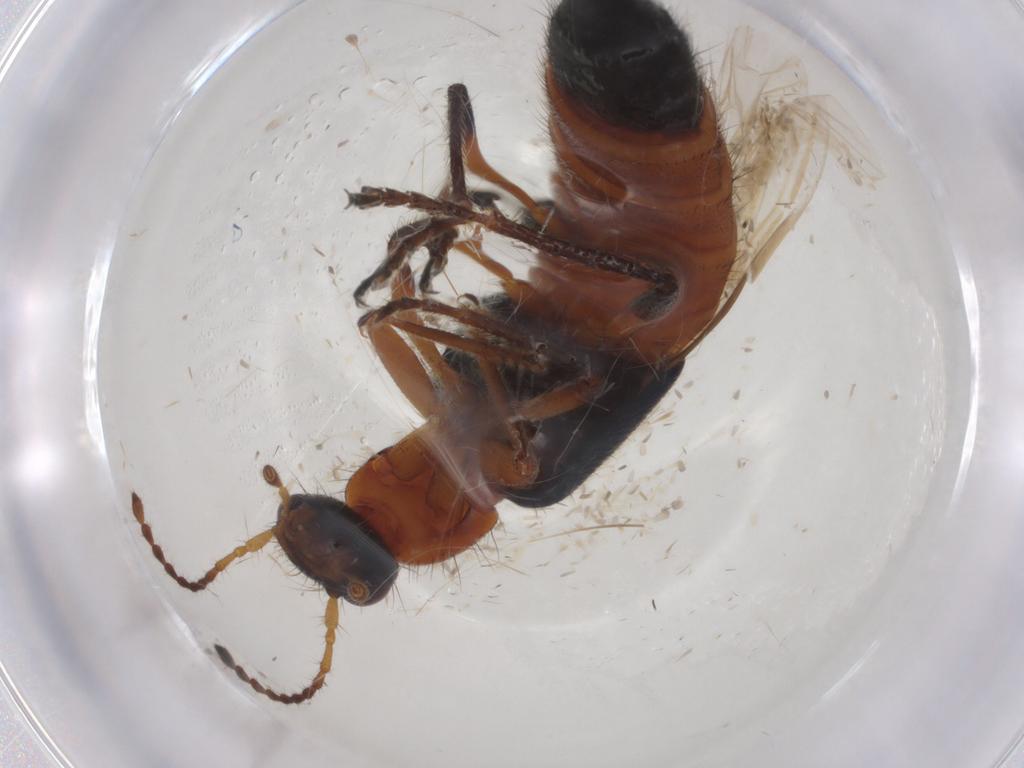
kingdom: Animalia
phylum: Arthropoda
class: Insecta
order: Coleoptera
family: Staphylinidae
